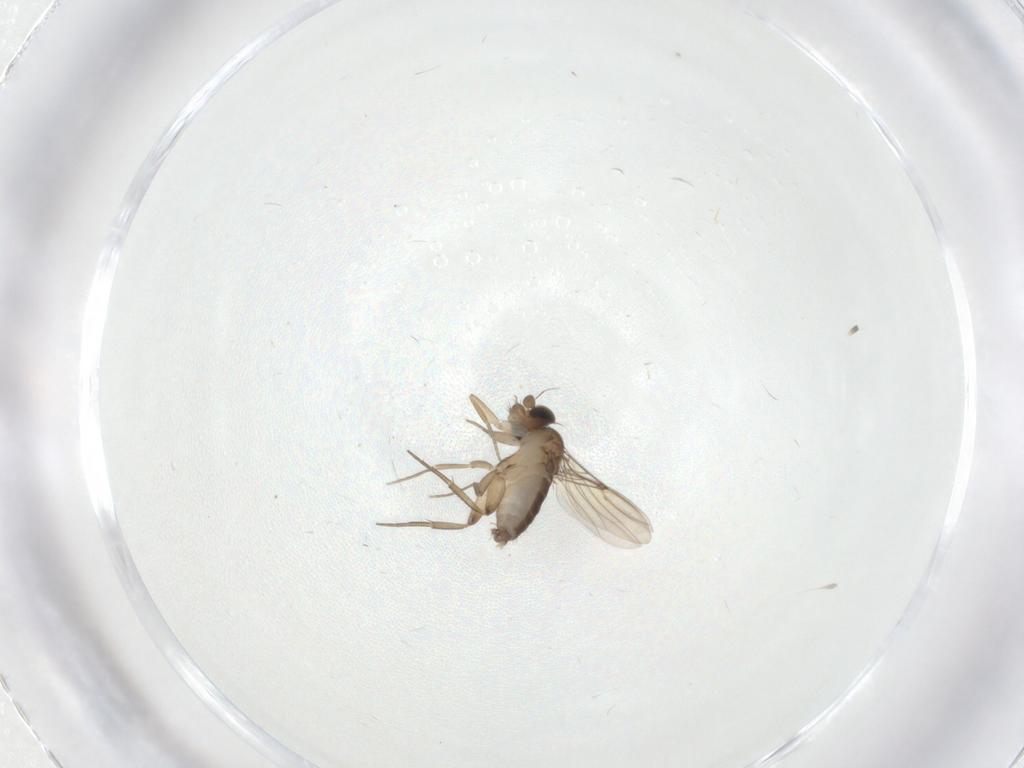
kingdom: Animalia
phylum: Arthropoda
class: Insecta
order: Diptera
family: Phoridae
